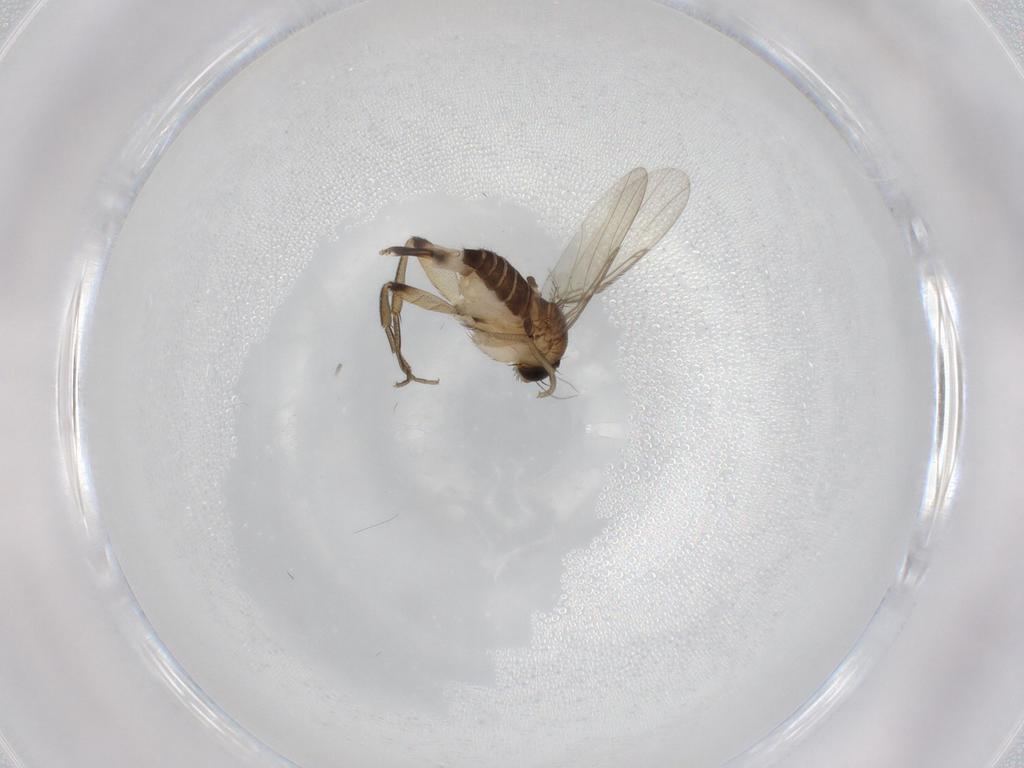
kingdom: Animalia
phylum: Arthropoda
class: Insecta
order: Diptera
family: Phoridae
